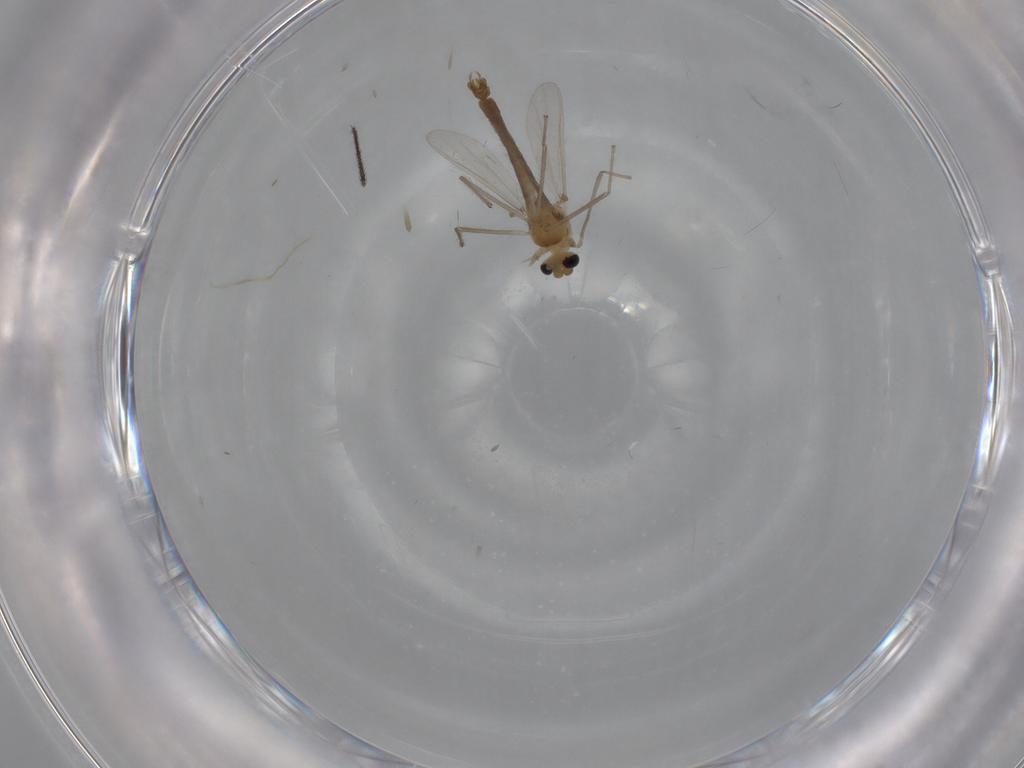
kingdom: Animalia
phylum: Arthropoda
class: Insecta
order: Diptera
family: Chironomidae
